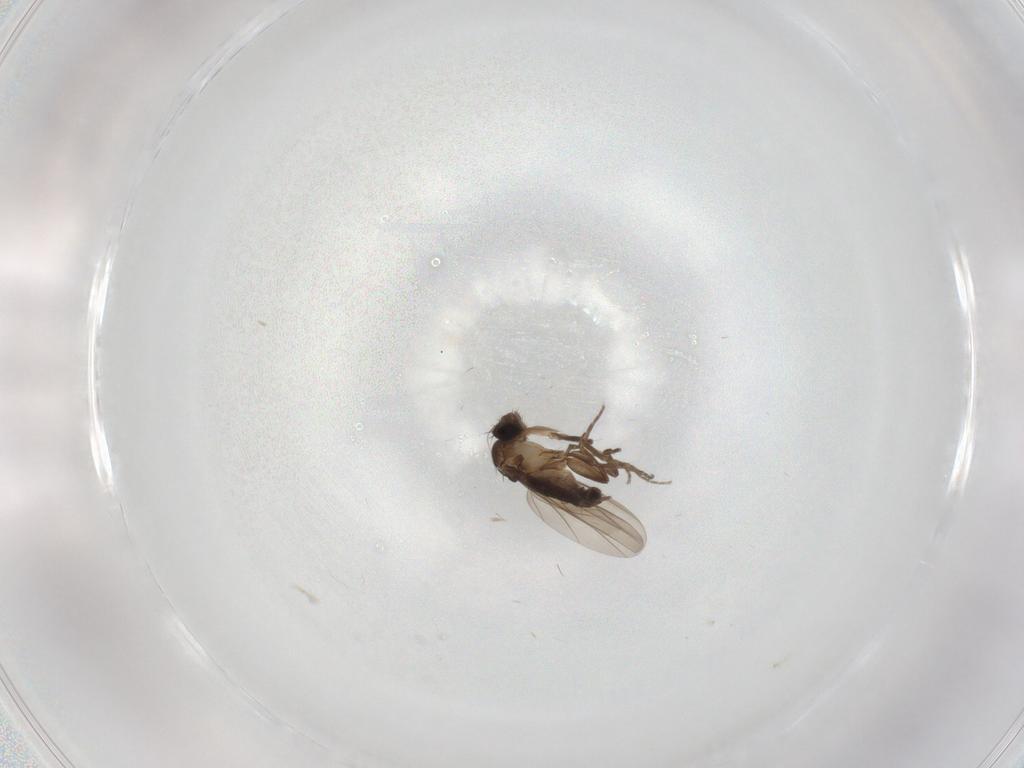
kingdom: Animalia
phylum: Arthropoda
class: Insecta
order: Diptera
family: Phoridae
